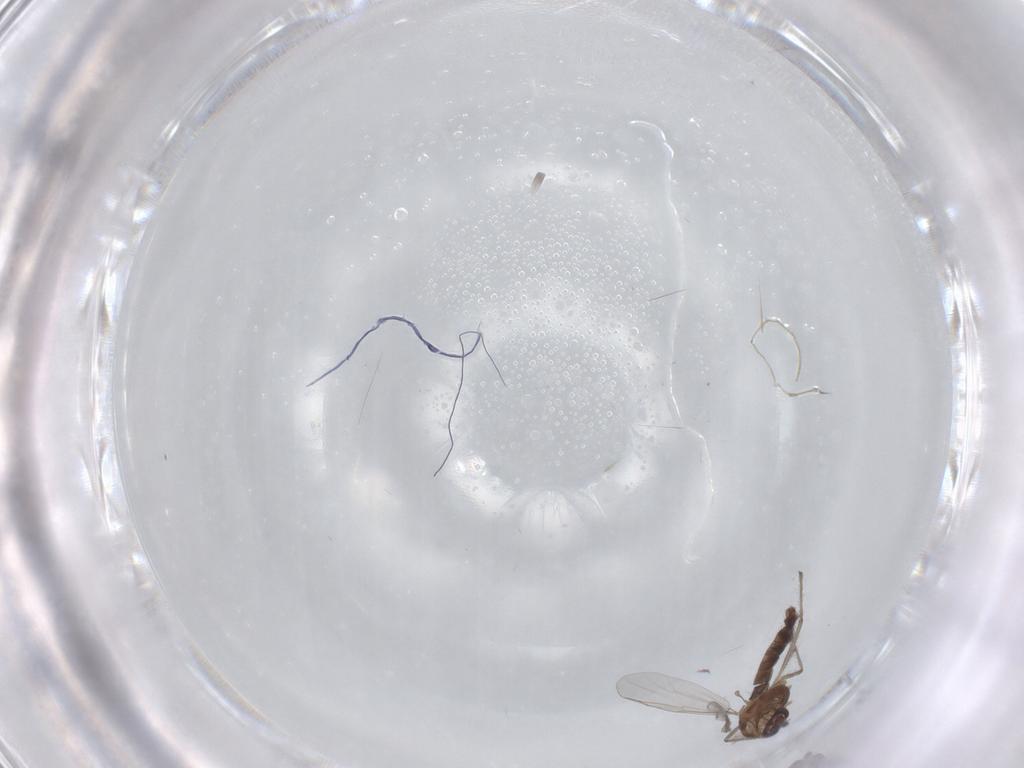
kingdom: Animalia
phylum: Arthropoda
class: Insecta
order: Diptera
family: Chironomidae
